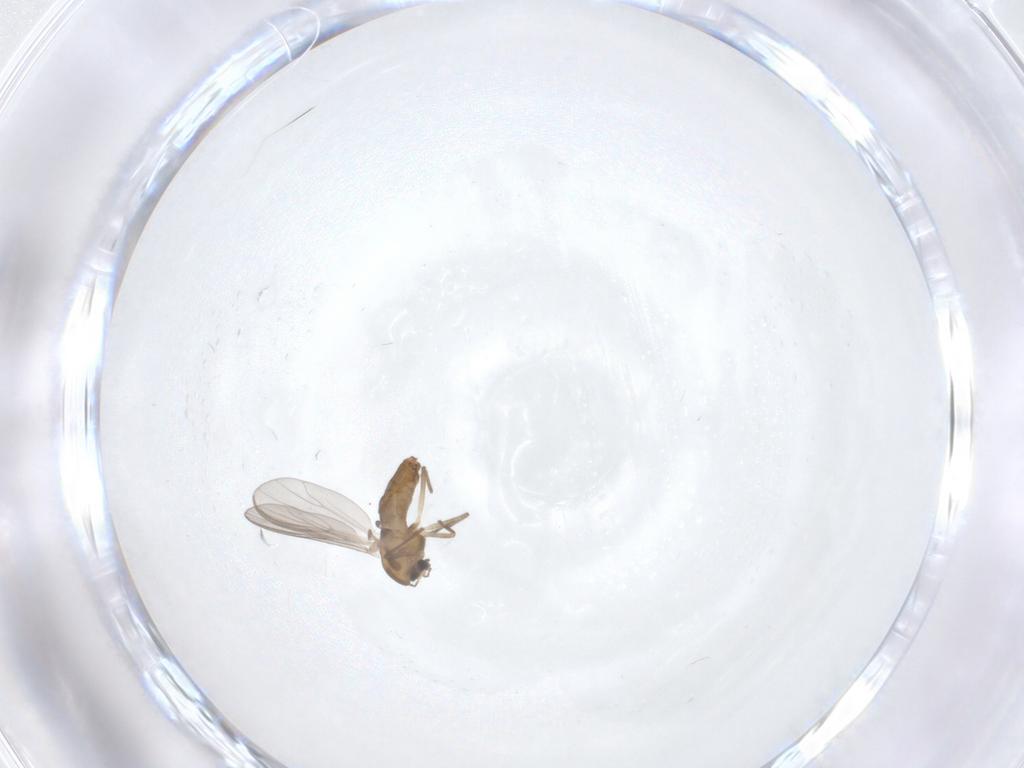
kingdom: Animalia
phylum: Arthropoda
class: Insecta
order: Diptera
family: Chironomidae
